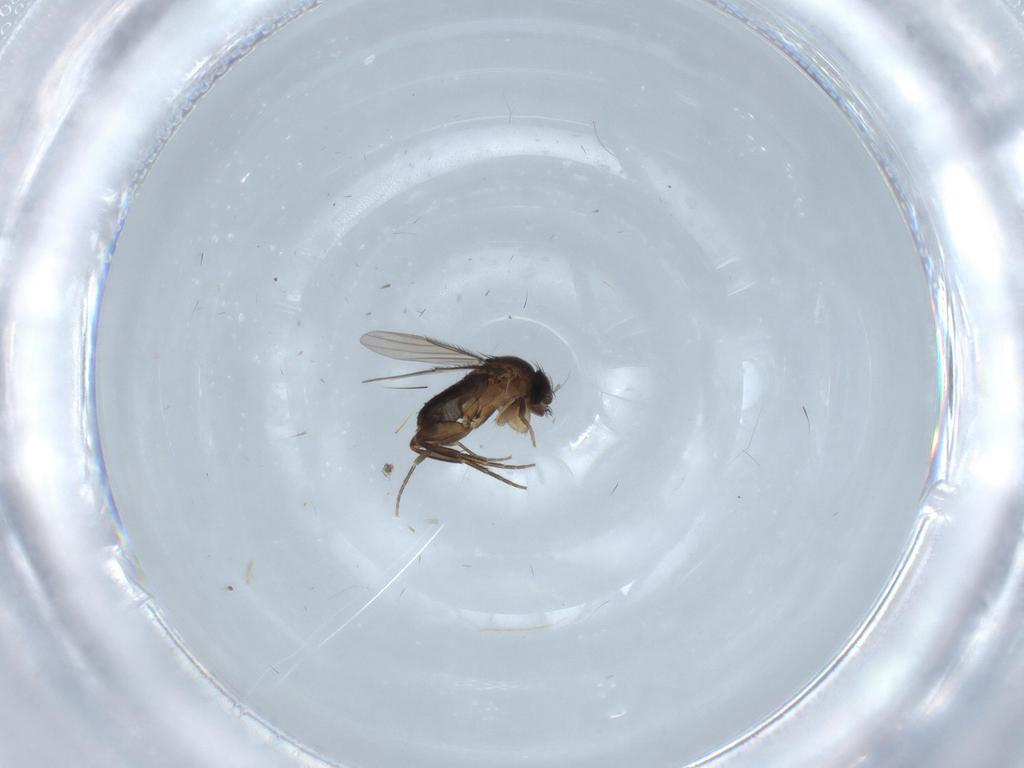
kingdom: Animalia
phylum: Arthropoda
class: Insecta
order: Diptera
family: Phoridae
